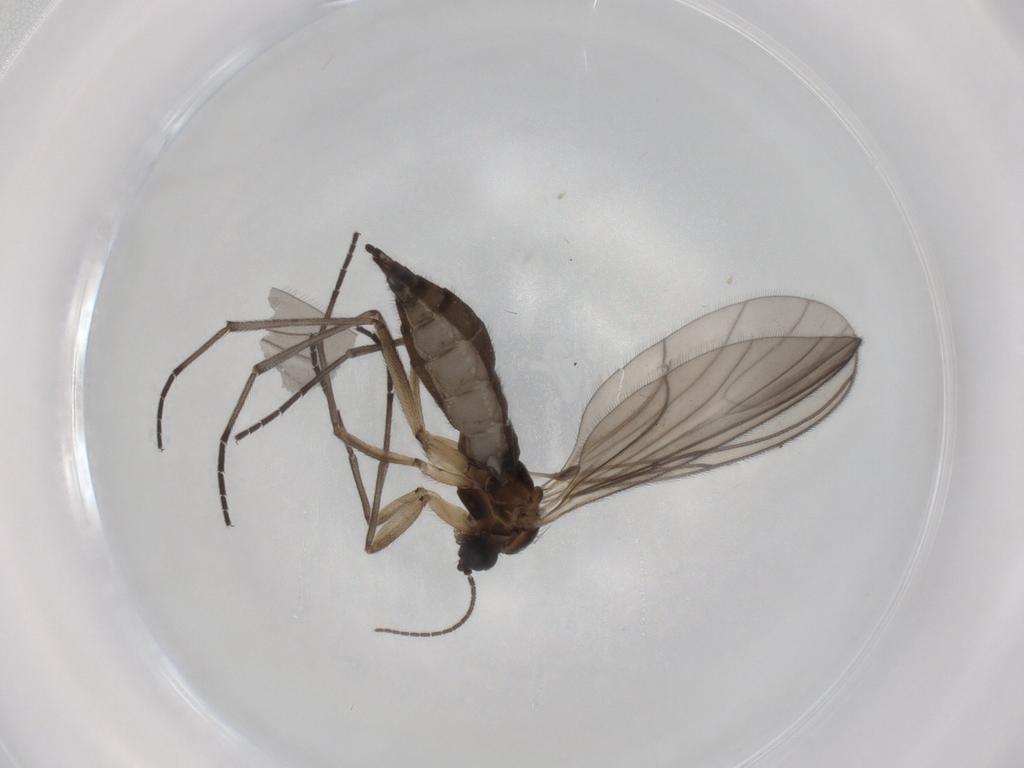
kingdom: Animalia
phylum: Arthropoda
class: Insecta
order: Diptera
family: Sciaridae
